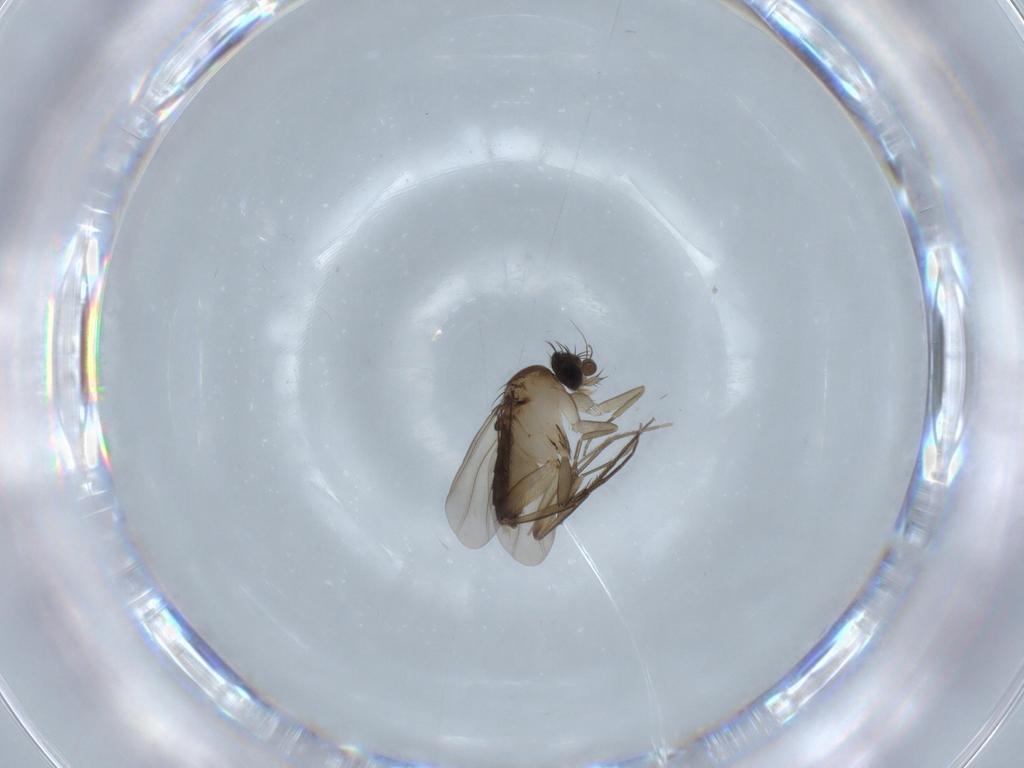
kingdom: Animalia
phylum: Arthropoda
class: Insecta
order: Diptera
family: Phoridae
